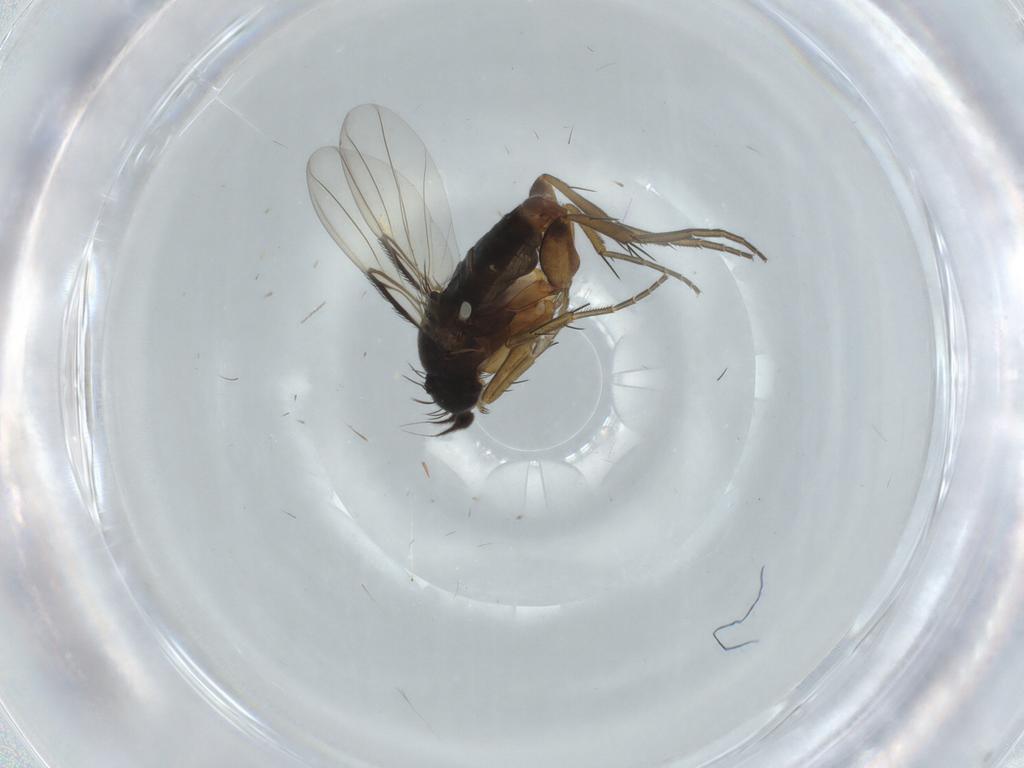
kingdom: Animalia
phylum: Arthropoda
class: Insecta
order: Diptera
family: Phoridae
